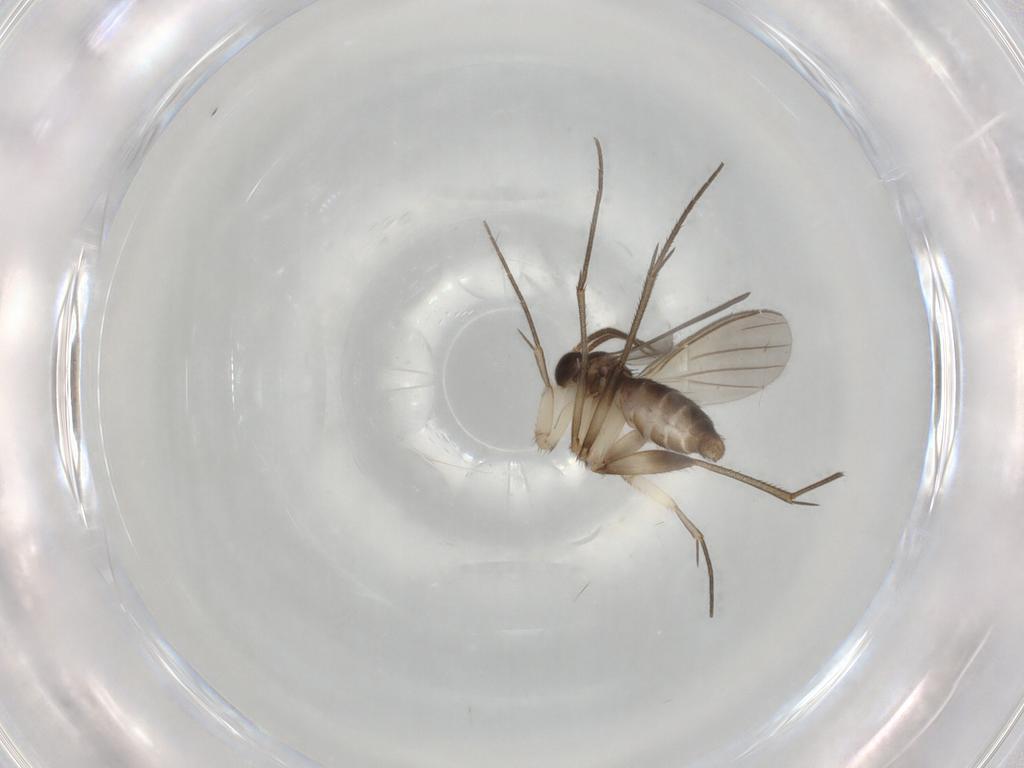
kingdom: Animalia
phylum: Arthropoda
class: Insecta
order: Diptera
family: Mycetophilidae
